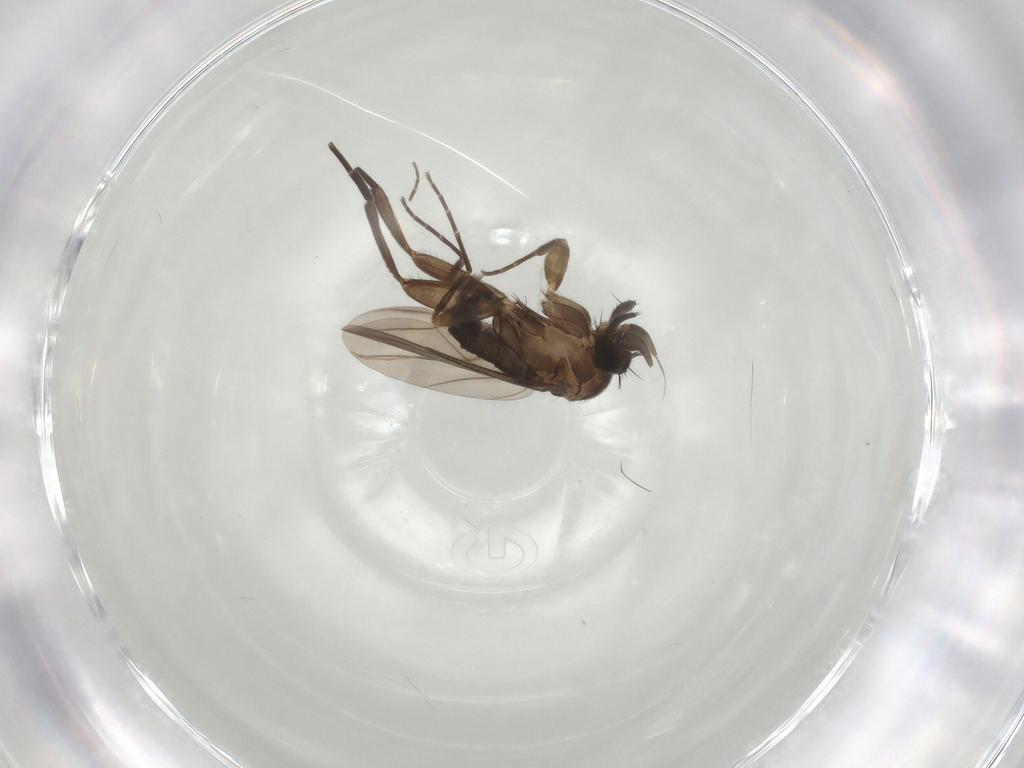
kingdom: Animalia
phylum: Arthropoda
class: Insecta
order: Diptera
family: Phoridae
